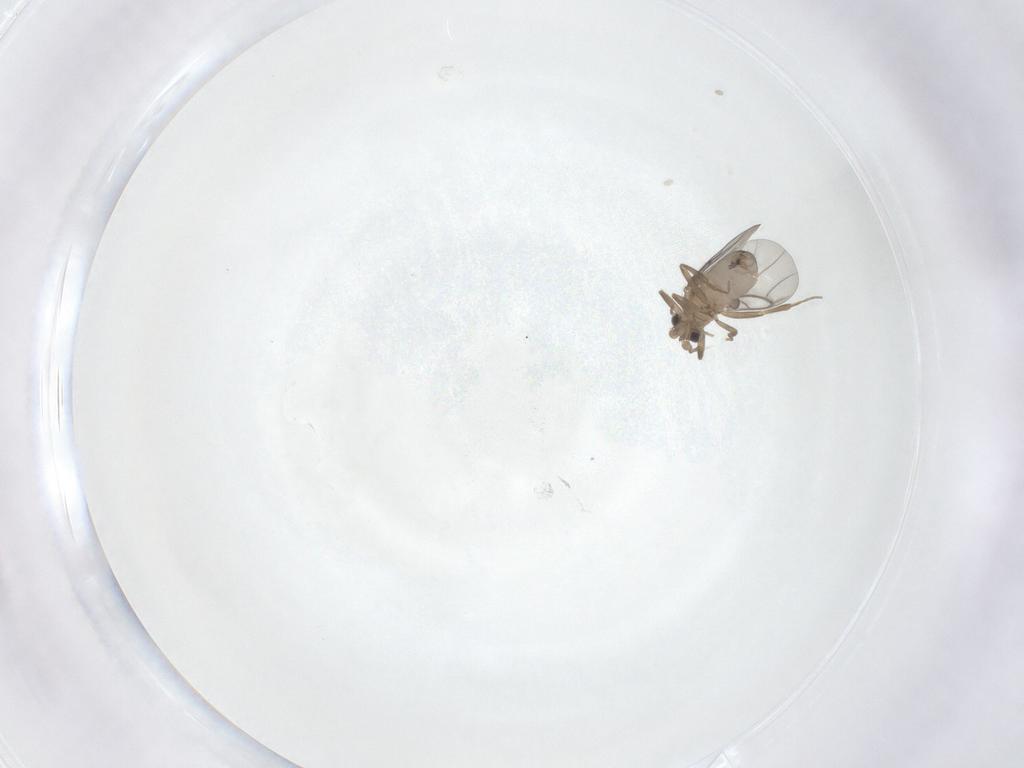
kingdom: Animalia
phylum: Arthropoda
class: Insecta
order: Diptera
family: Phoridae
